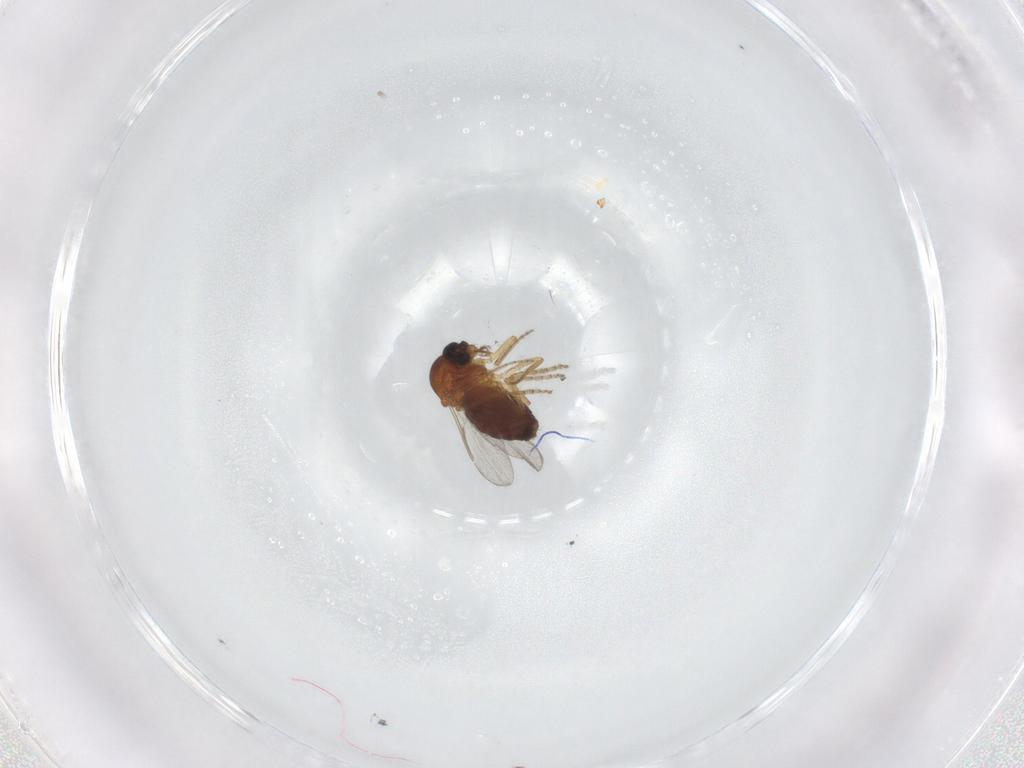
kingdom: Animalia
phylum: Arthropoda
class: Insecta
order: Diptera
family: Ceratopogonidae
